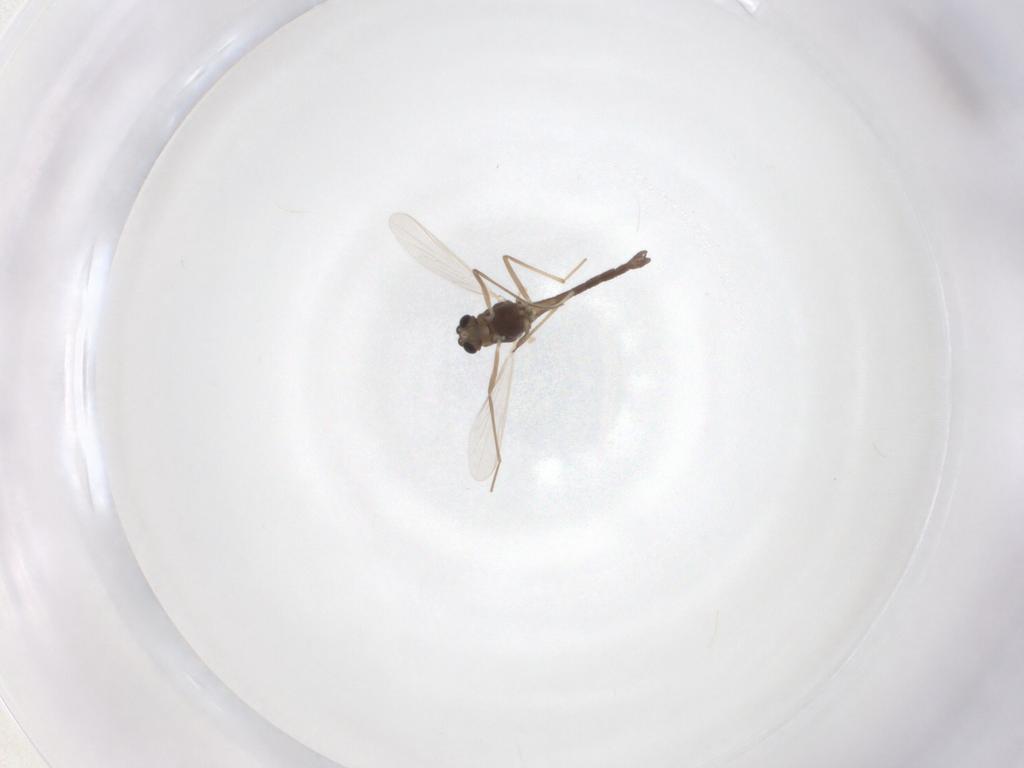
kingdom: Animalia
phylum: Arthropoda
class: Insecta
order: Diptera
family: Chironomidae
